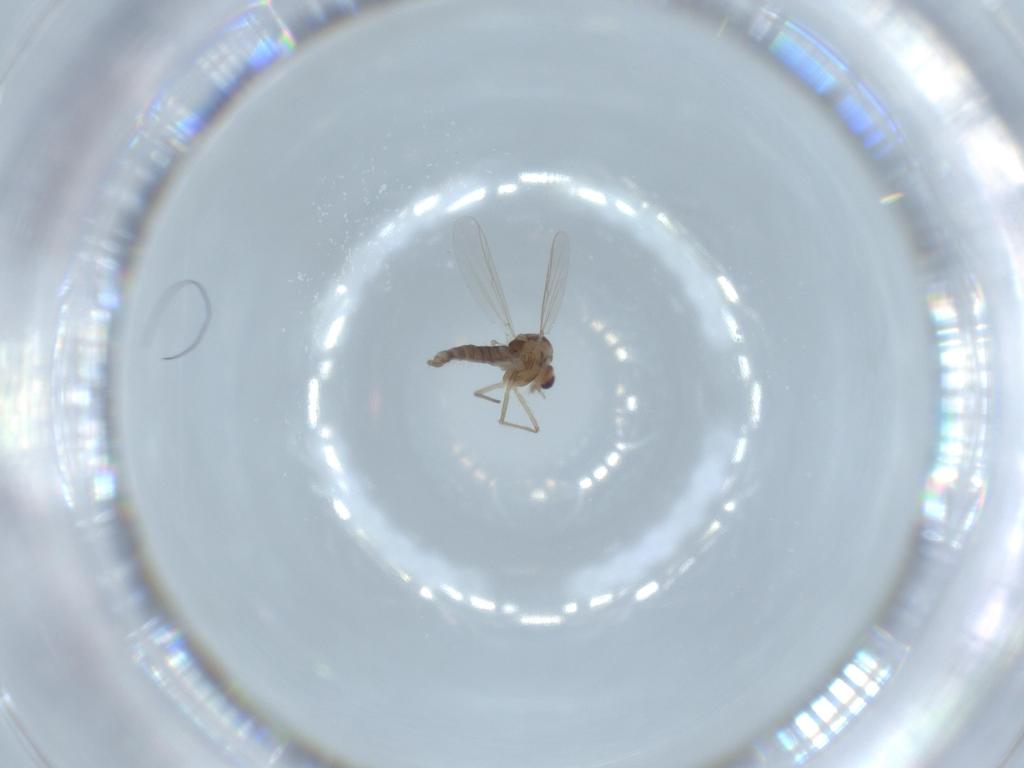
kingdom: Animalia
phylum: Arthropoda
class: Insecta
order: Diptera
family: Chironomidae
